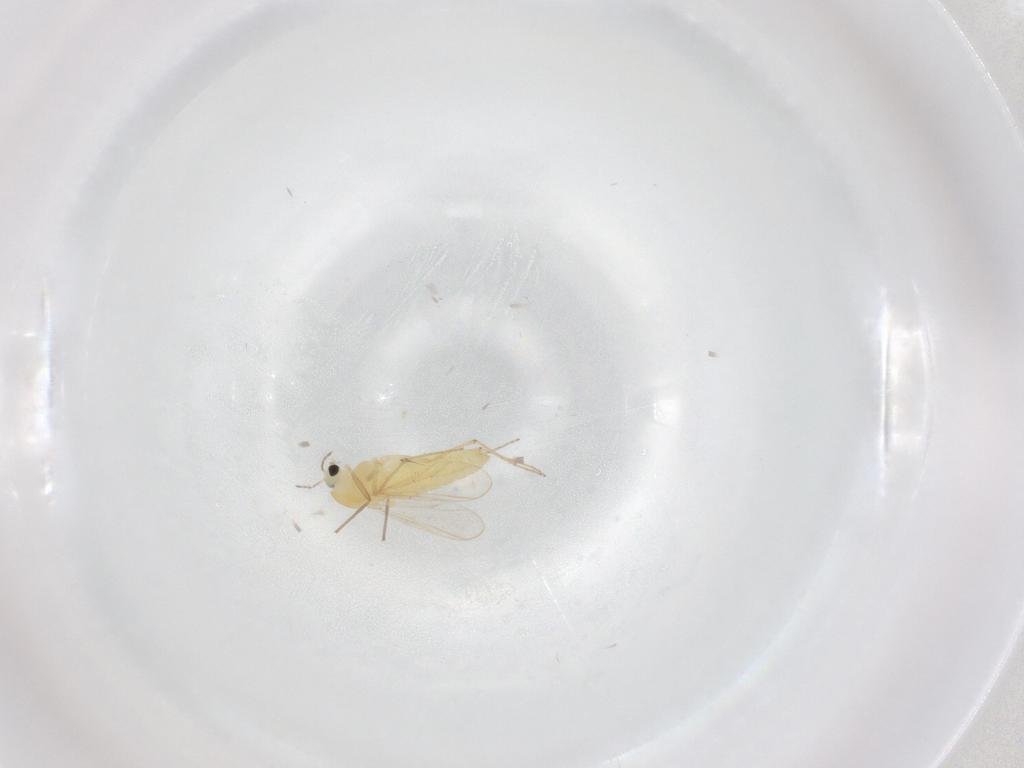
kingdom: Animalia
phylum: Arthropoda
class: Insecta
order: Diptera
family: Chironomidae
